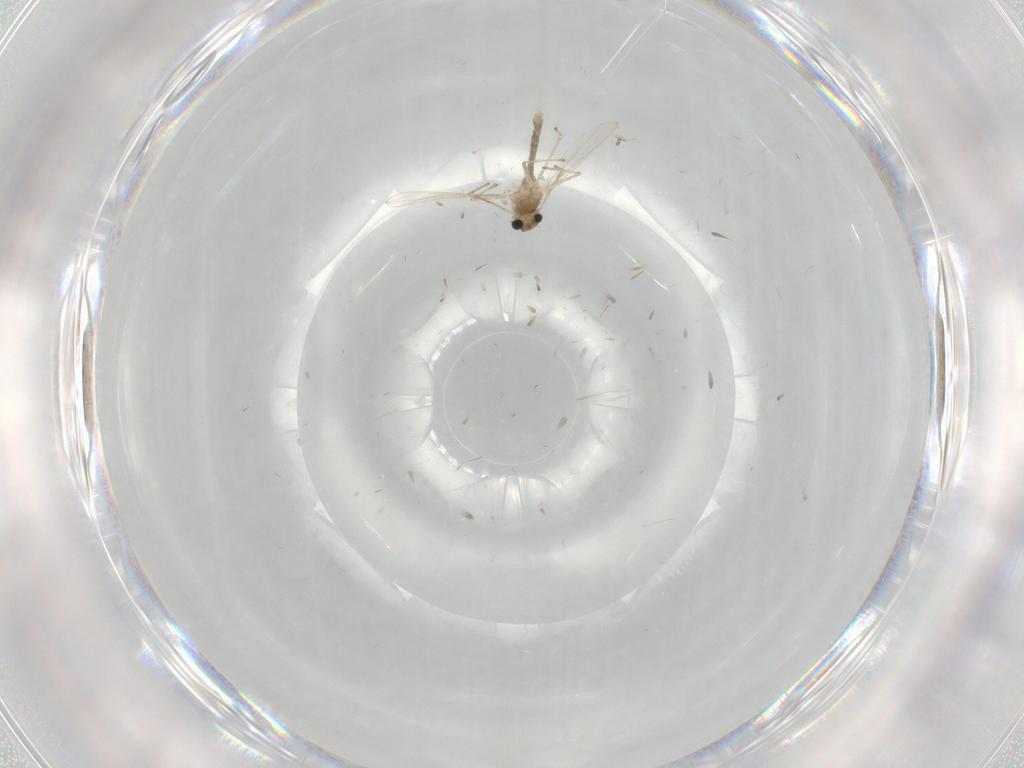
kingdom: Animalia
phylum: Arthropoda
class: Insecta
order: Diptera
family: Chironomidae
